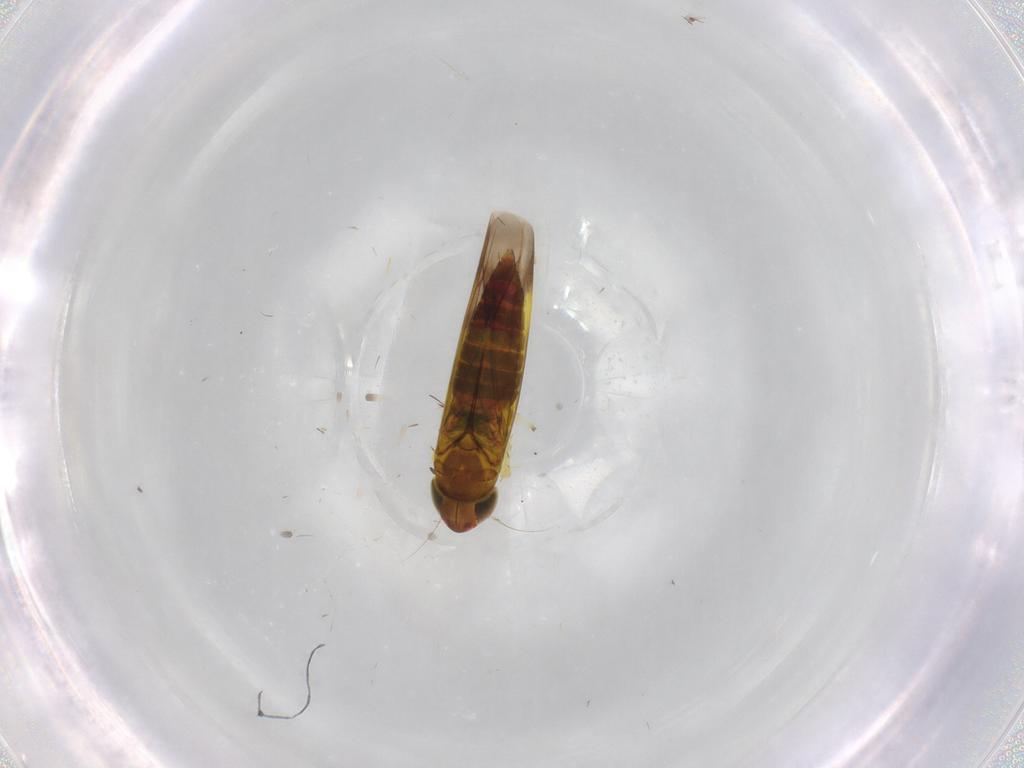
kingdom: Animalia
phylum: Arthropoda
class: Insecta
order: Hemiptera
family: Cicadellidae
